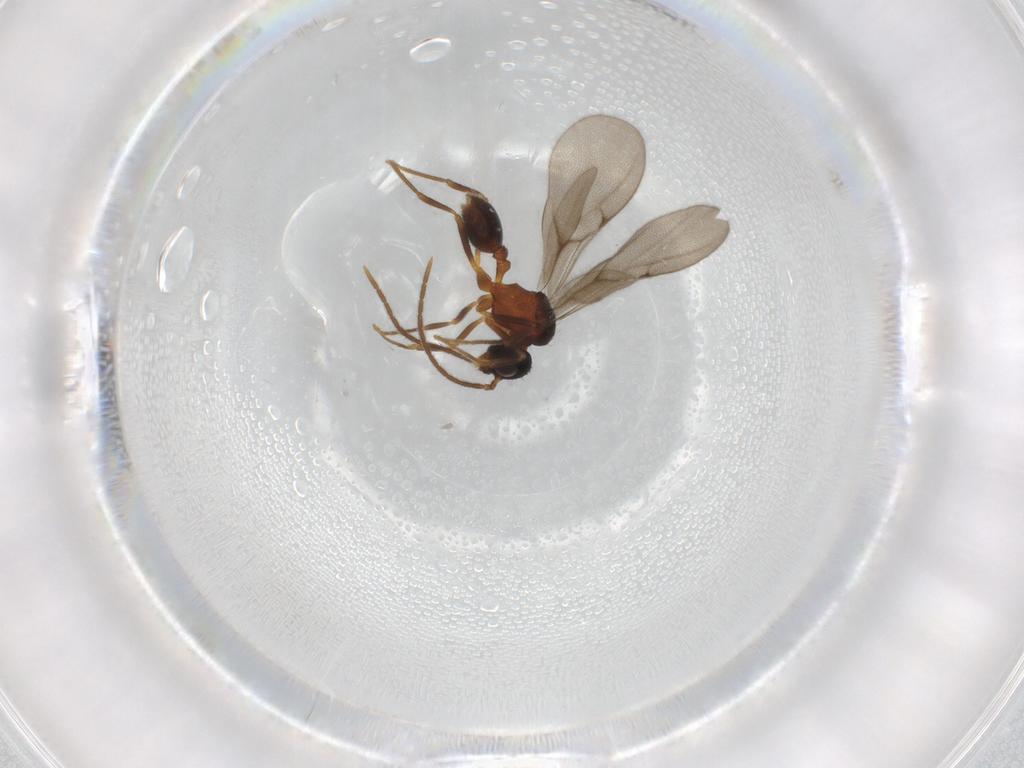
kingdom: Animalia
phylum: Arthropoda
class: Insecta
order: Hymenoptera
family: Formicidae
